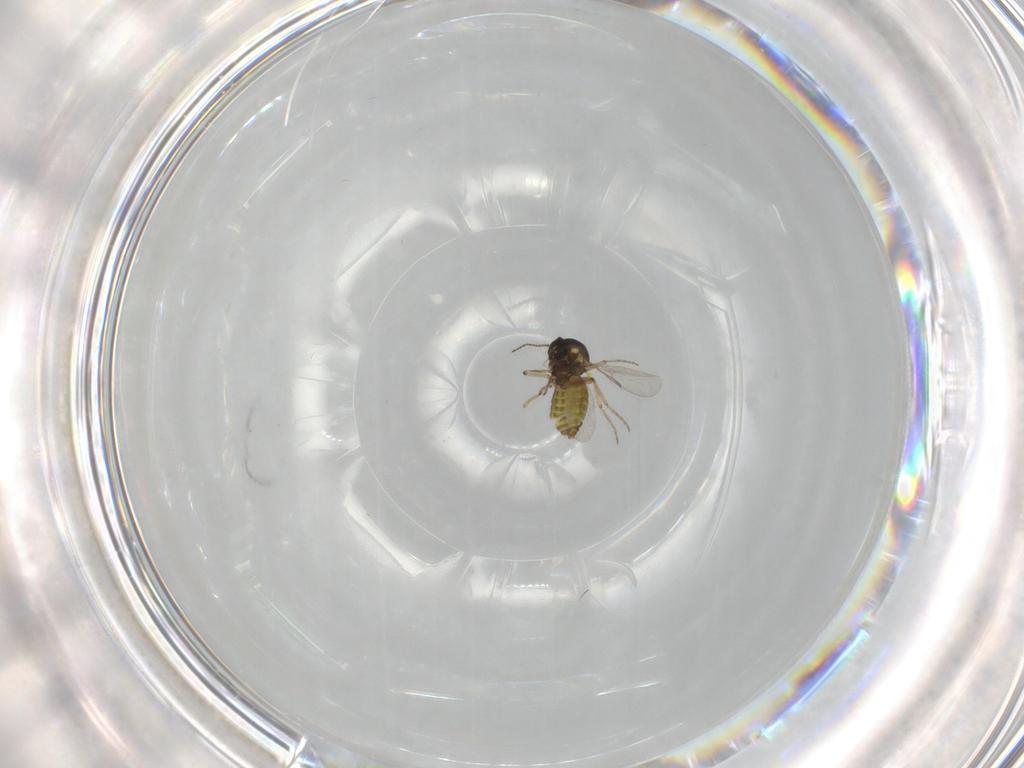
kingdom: Animalia
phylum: Arthropoda
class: Insecta
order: Diptera
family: Ceratopogonidae
